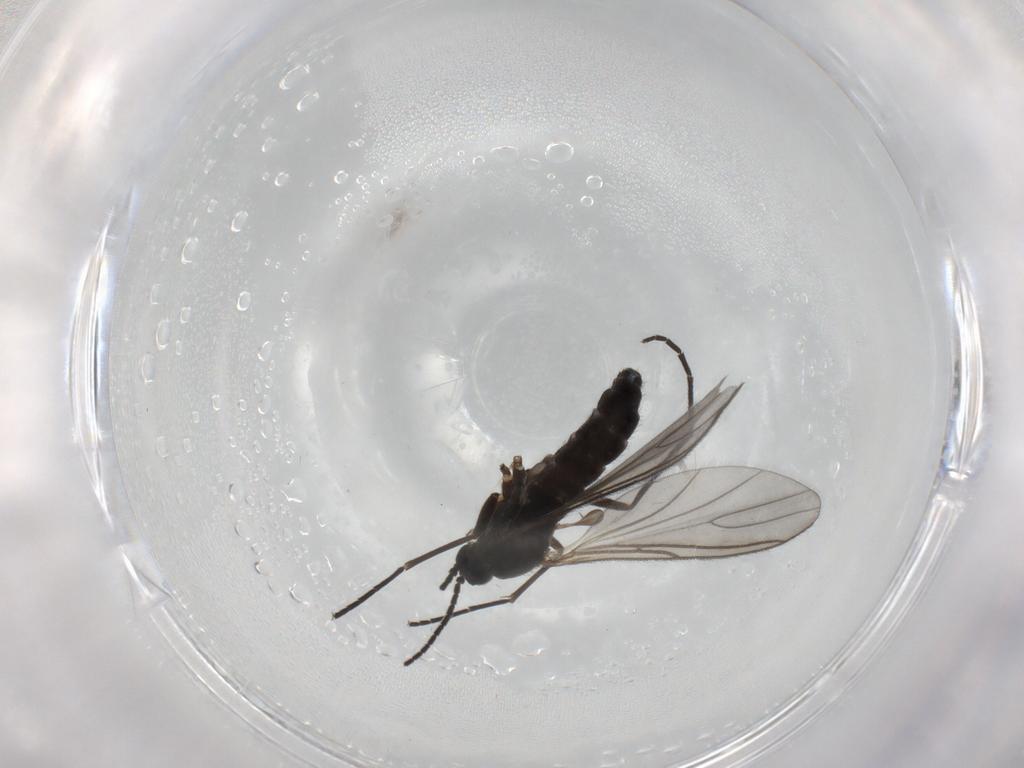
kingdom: Animalia
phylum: Arthropoda
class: Insecta
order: Diptera
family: Sciaridae
